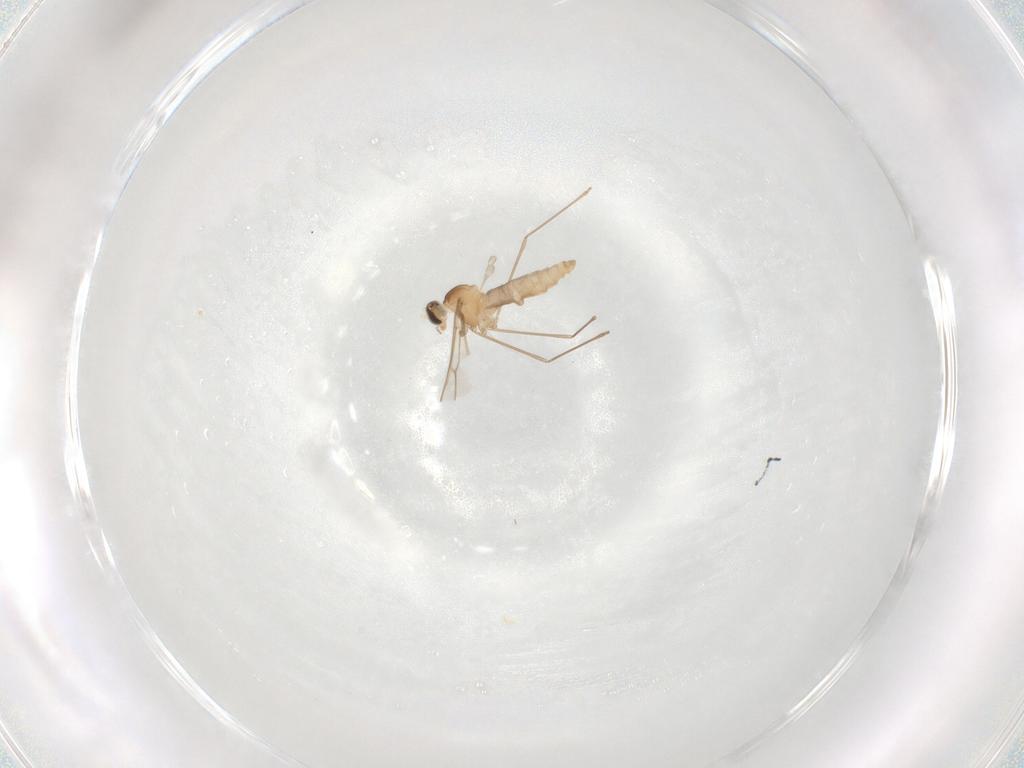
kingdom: Animalia
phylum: Arthropoda
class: Insecta
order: Diptera
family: Cecidomyiidae
